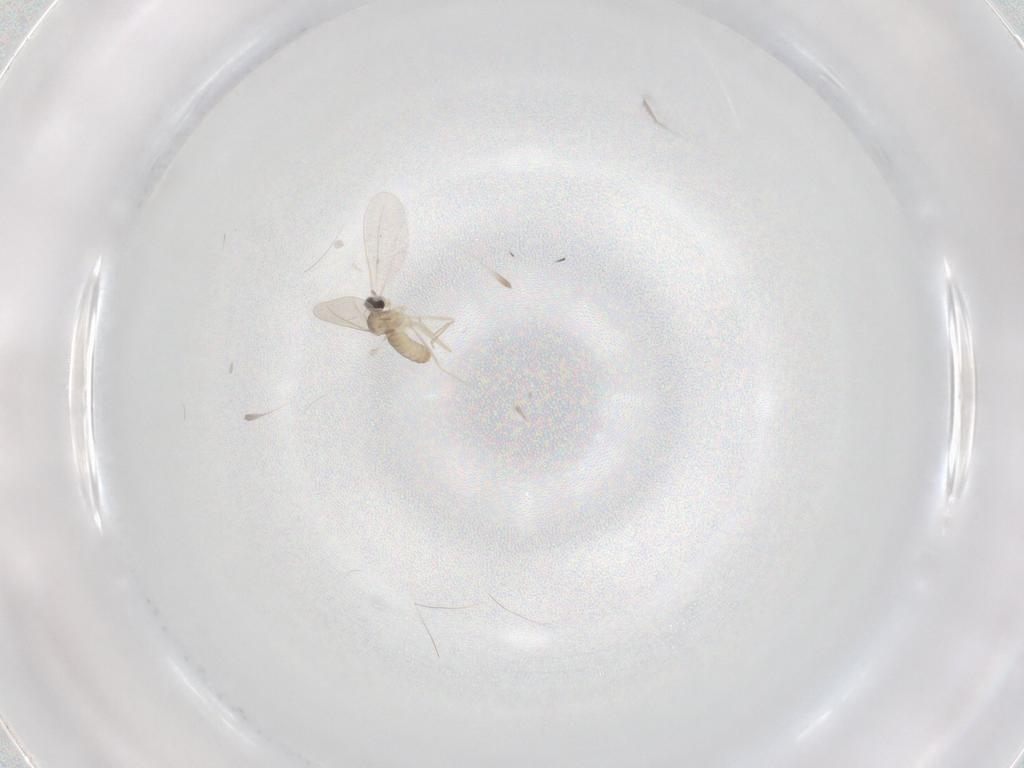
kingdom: Animalia
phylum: Arthropoda
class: Insecta
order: Diptera
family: Cecidomyiidae
